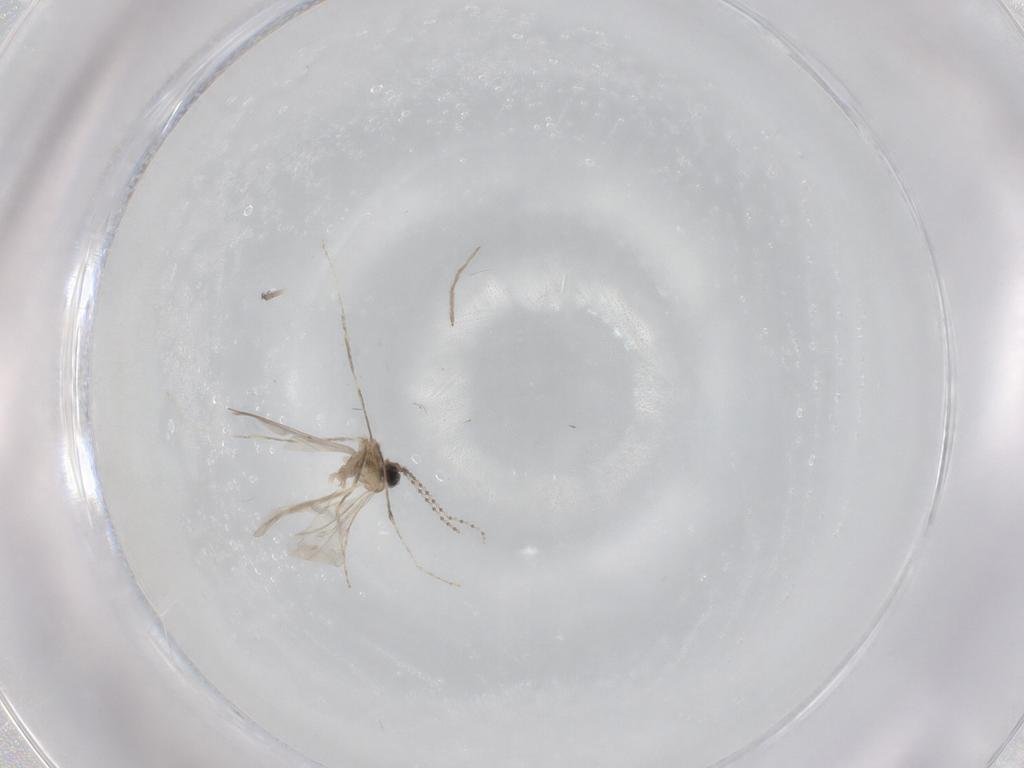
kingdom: Animalia
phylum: Arthropoda
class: Insecta
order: Diptera
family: Cecidomyiidae
